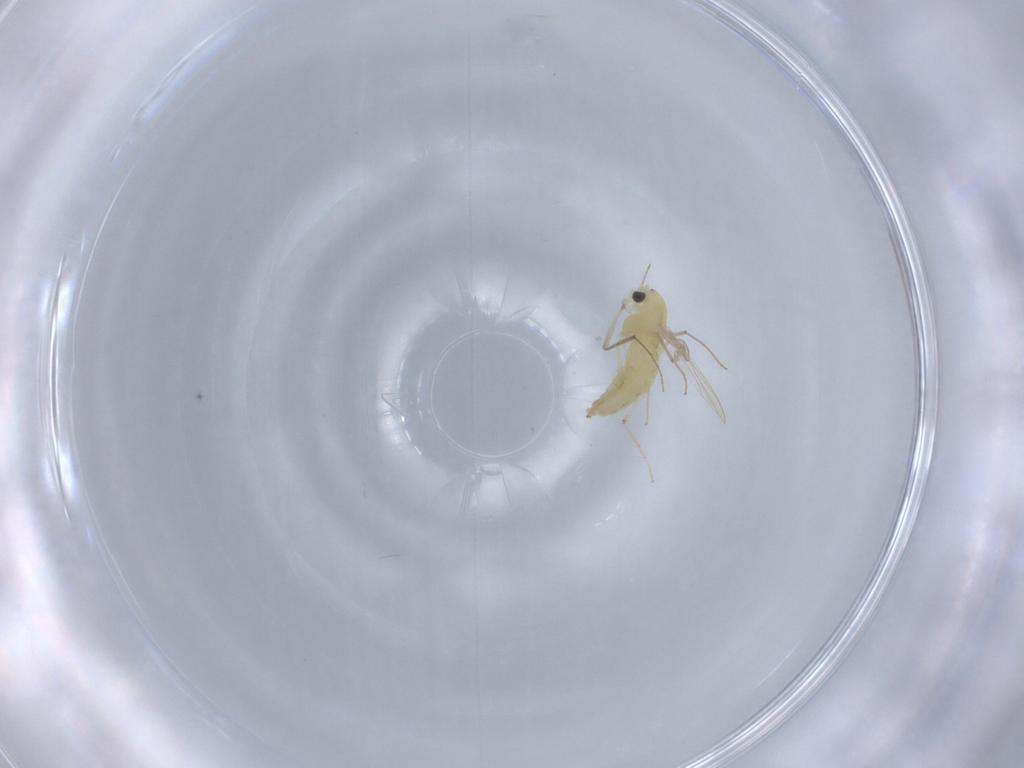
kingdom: Animalia
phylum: Arthropoda
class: Insecta
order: Diptera
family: Chironomidae
